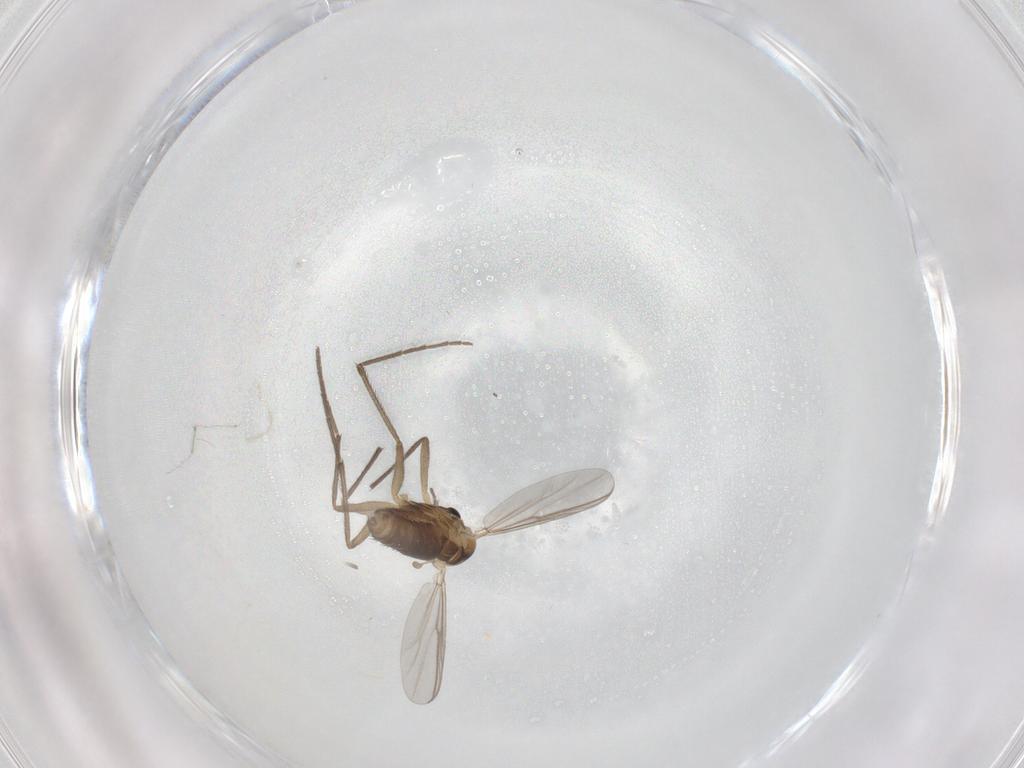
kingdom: Animalia
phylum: Arthropoda
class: Insecta
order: Diptera
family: Chironomidae
